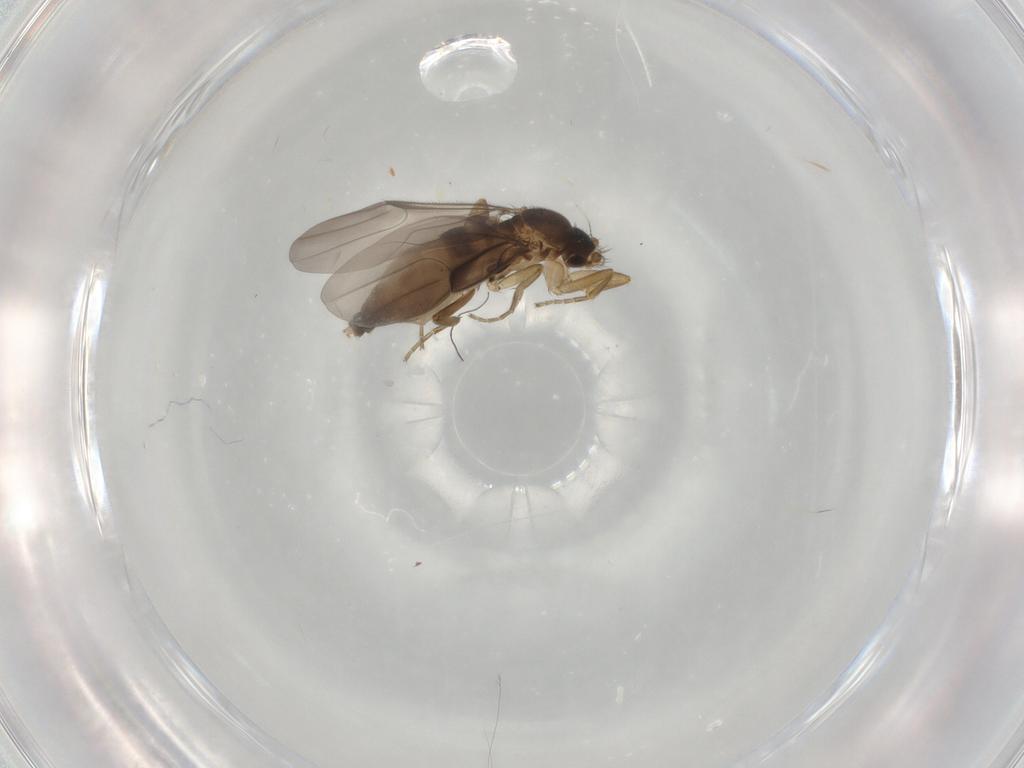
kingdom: Animalia
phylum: Arthropoda
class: Insecta
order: Diptera
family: Phoridae
